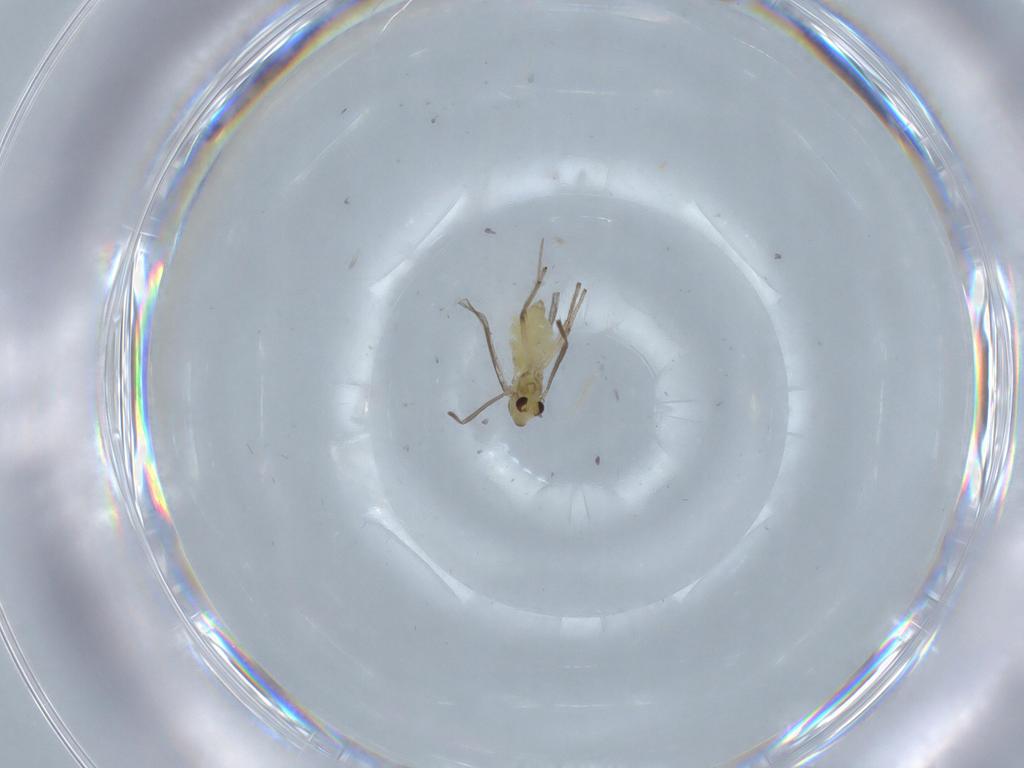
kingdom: Animalia
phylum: Arthropoda
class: Insecta
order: Diptera
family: Chironomidae
